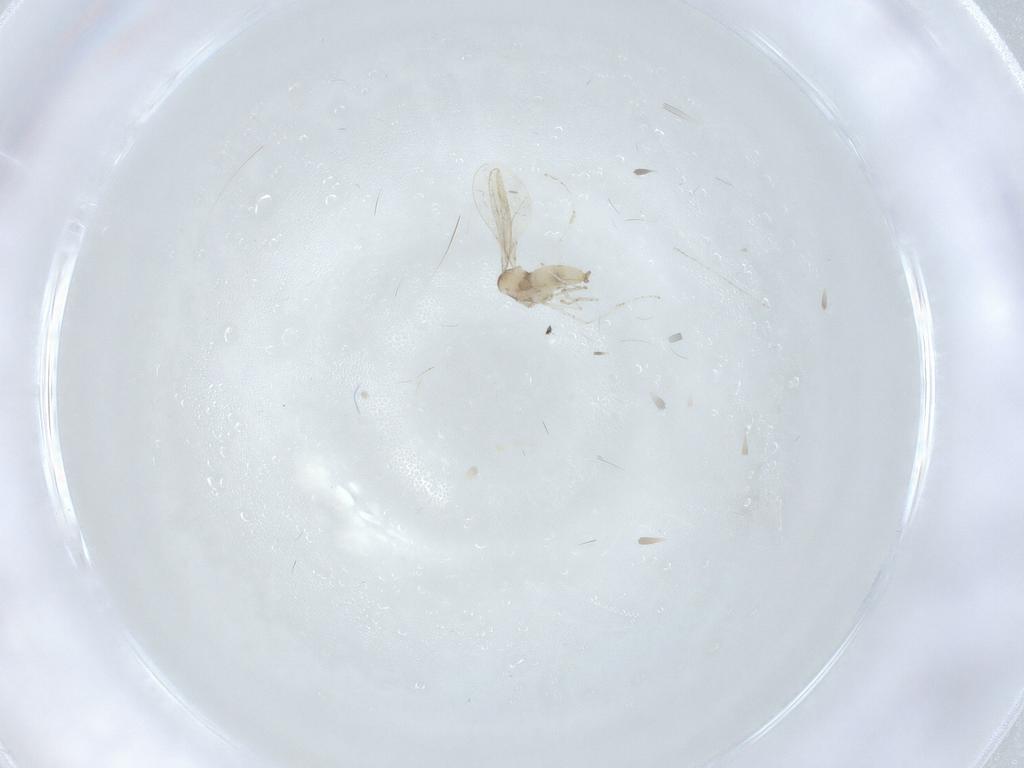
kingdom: Animalia
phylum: Arthropoda
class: Insecta
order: Diptera
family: Cecidomyiidae
